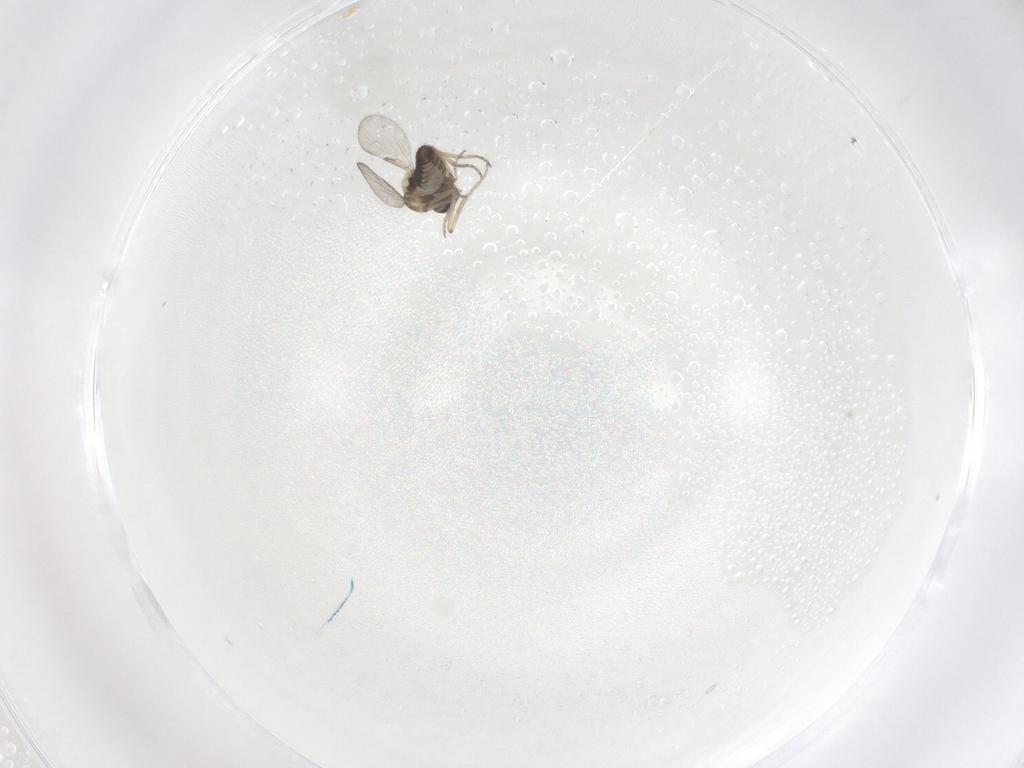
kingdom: Animalia
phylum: Arthropoda
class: Insecta
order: Diptera
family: Ceratopogonidae
